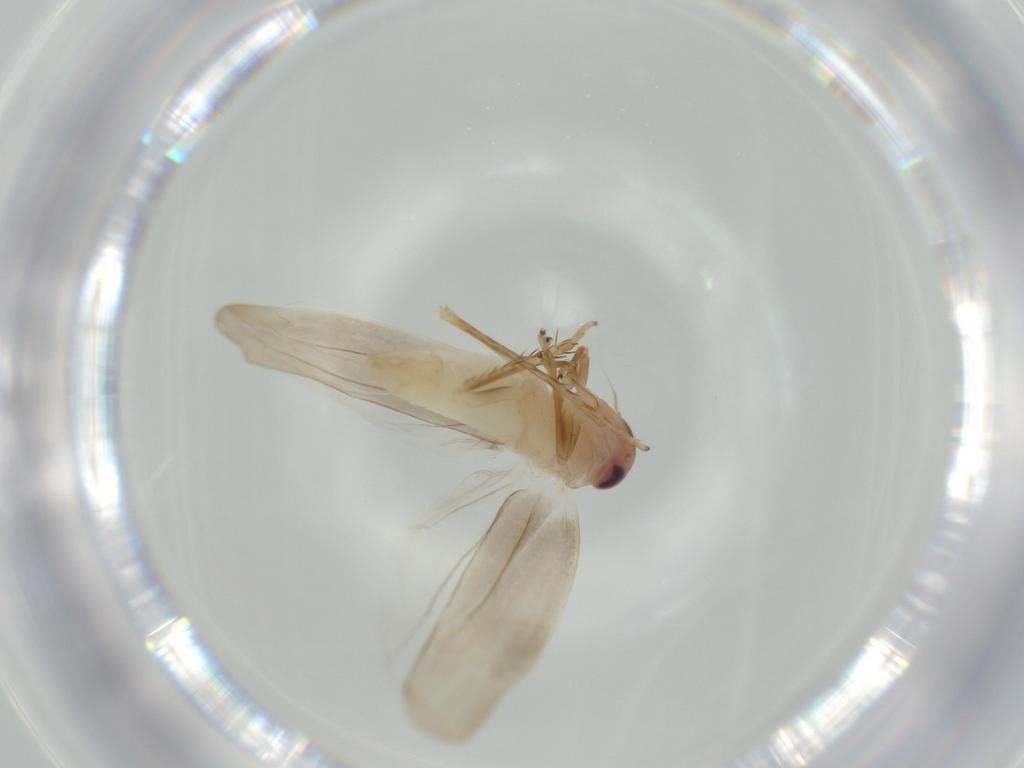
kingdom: Animalia
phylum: Arthropoda
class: Insecta
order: Hemiptera
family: Cicadellidae
